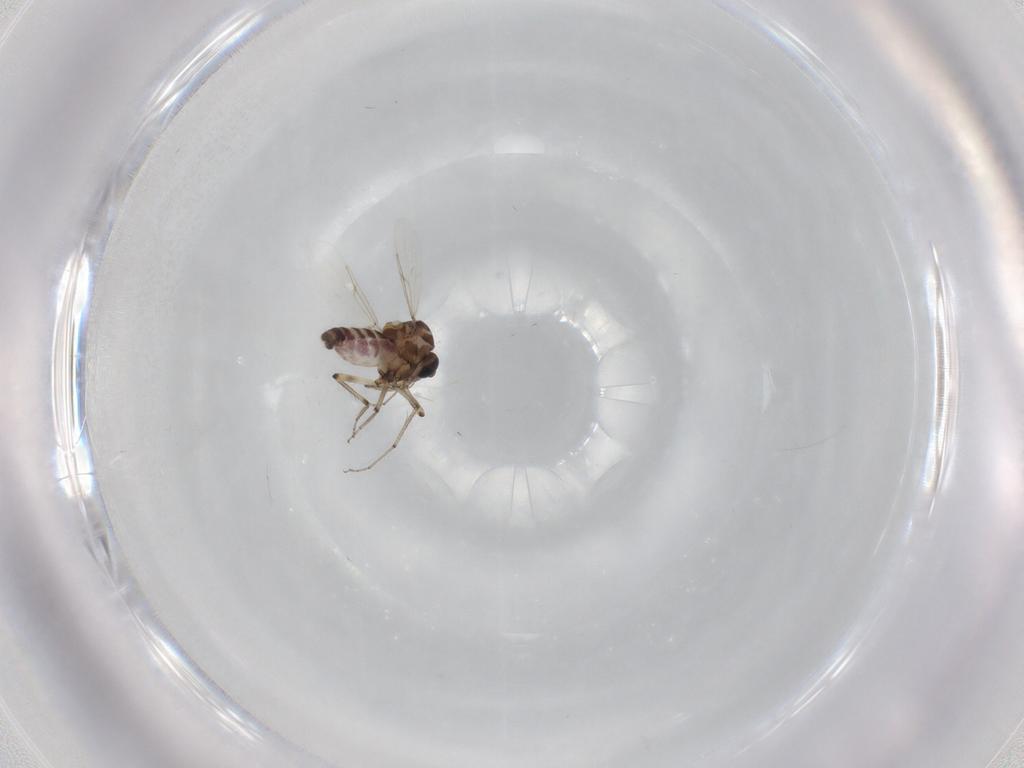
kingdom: Animalia
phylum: Arthropoda
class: Insecta
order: Diptera
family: Ceratopogonidae
